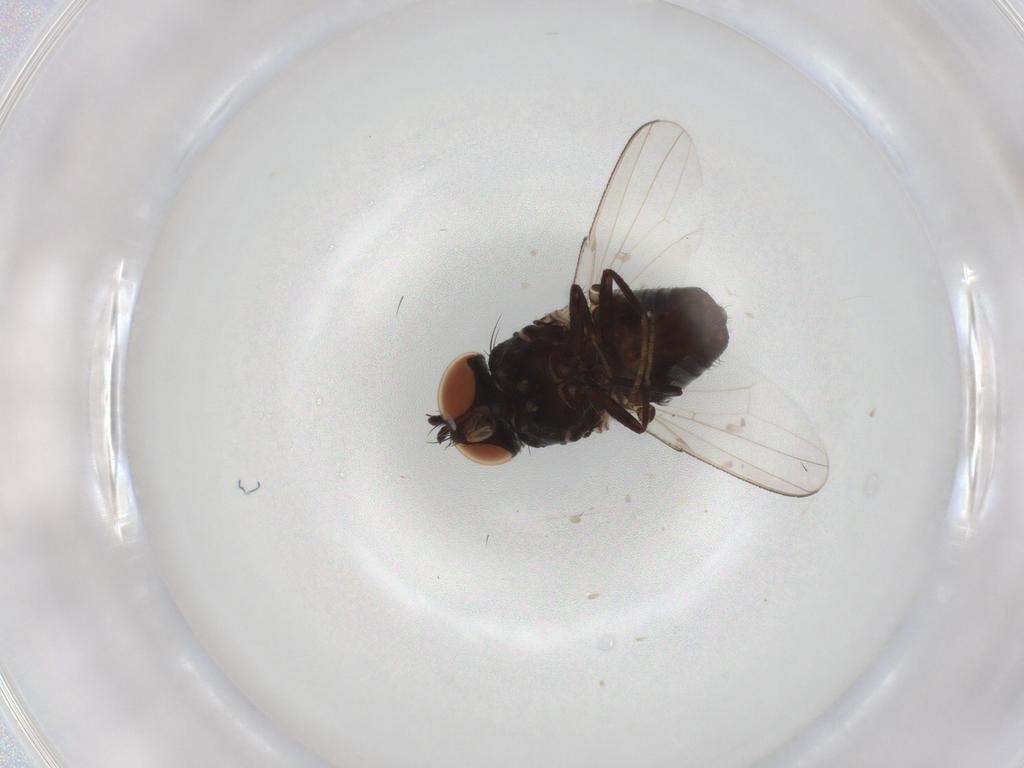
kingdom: Animalia
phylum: Arthropoda
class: Insecta
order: Diptera
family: Milichiidae
